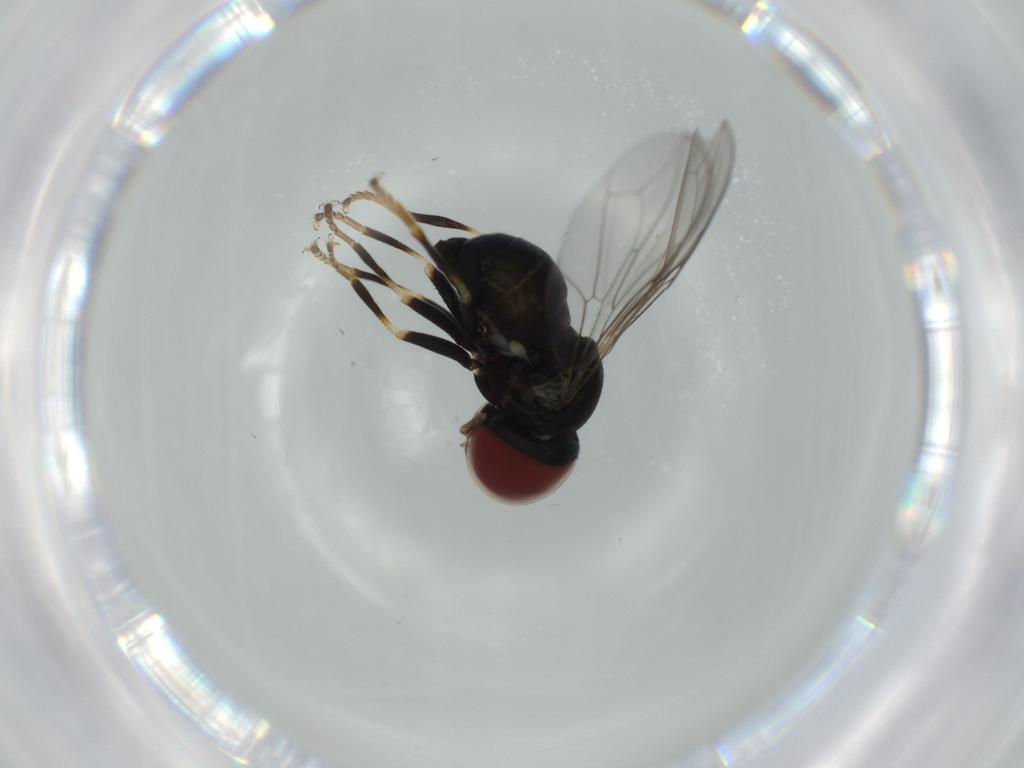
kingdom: Animalia
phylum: Arthropoda
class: Insecta
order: Diptera
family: Pipunculidae
